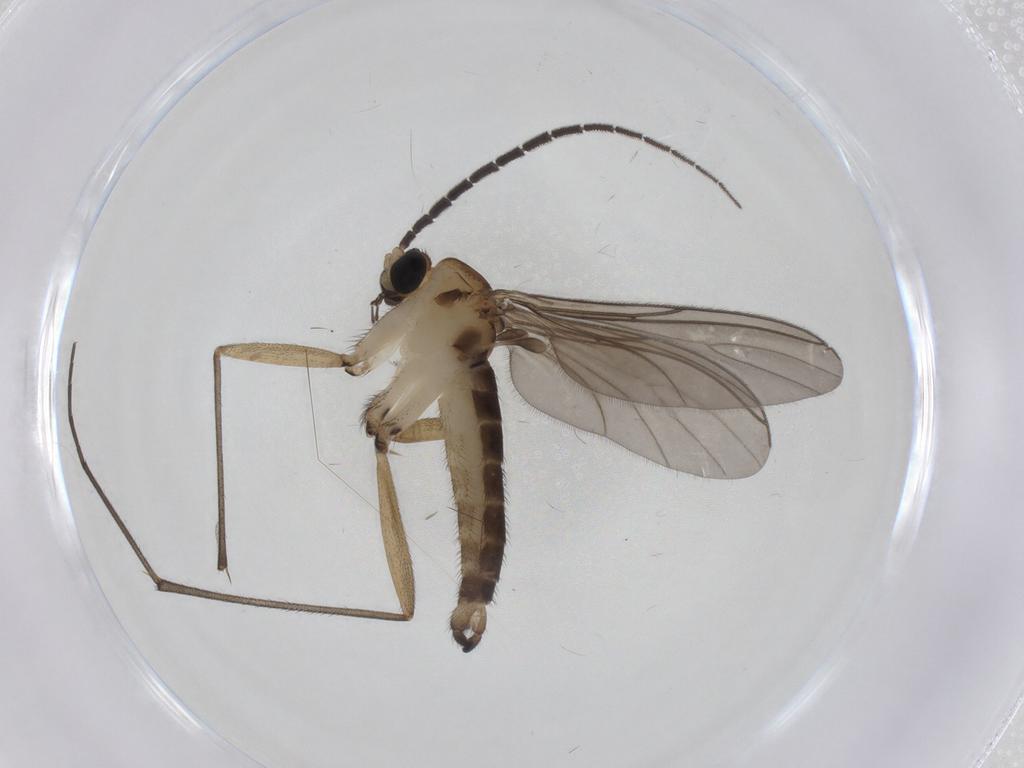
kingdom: Animalia
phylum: Arthropoda
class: Insecta
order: Diptera
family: Sciaridae
